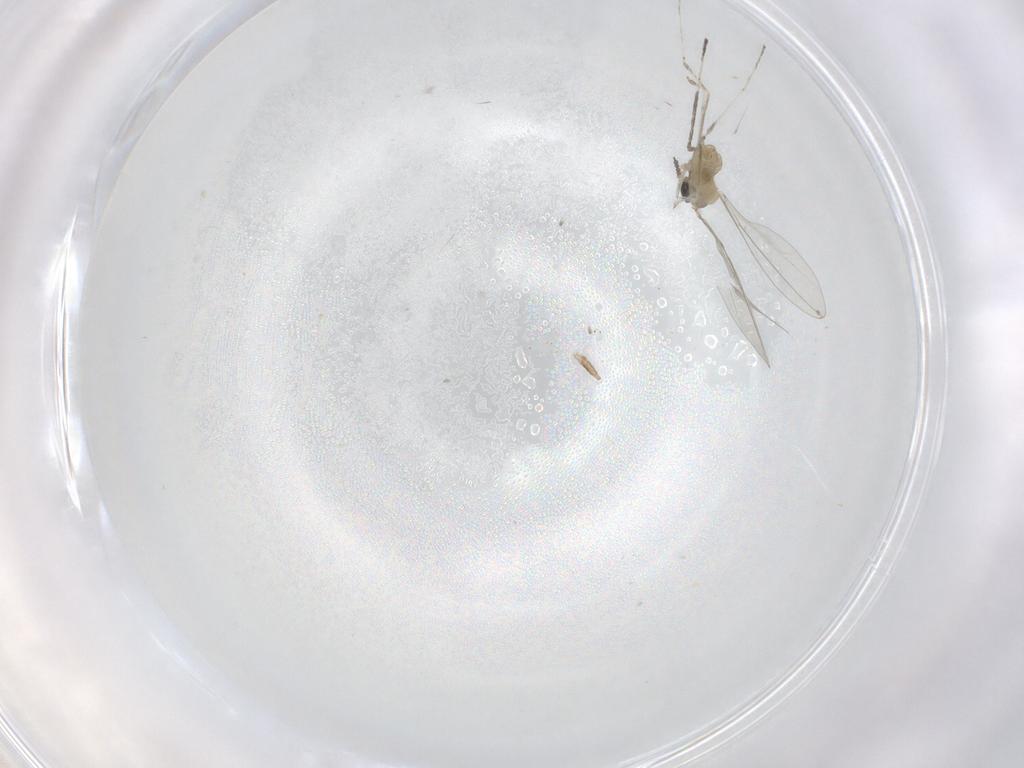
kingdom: Animalia
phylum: Arthropoda
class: Insecta
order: Diptera
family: Cecidomyiidae
